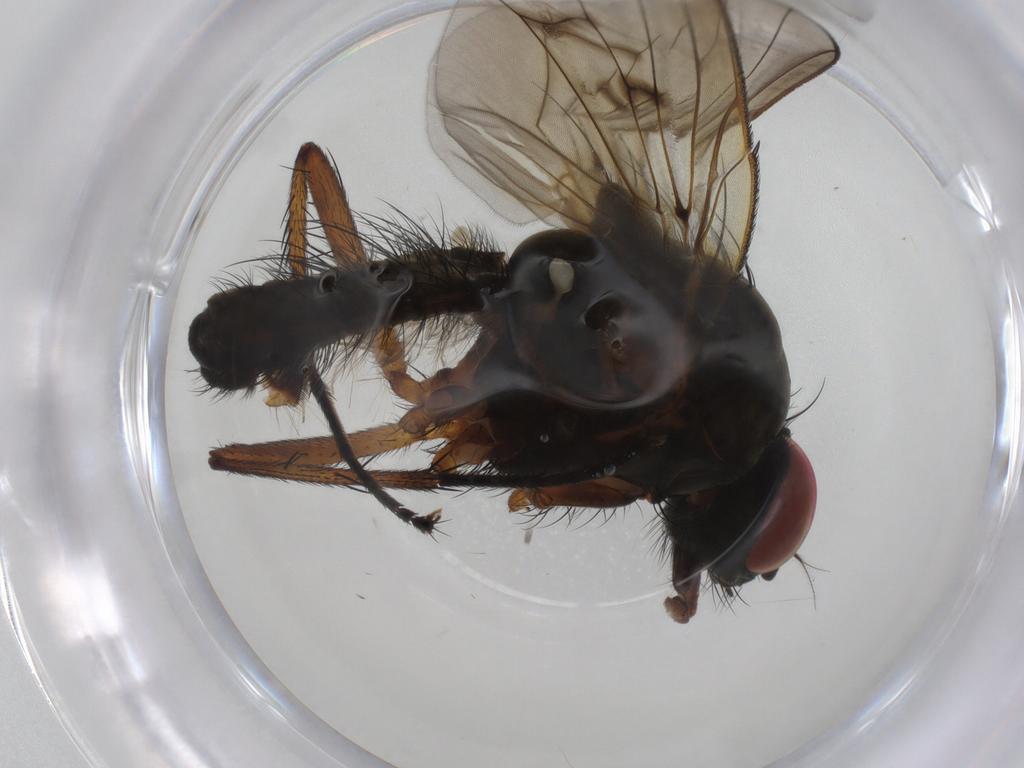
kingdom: Animalia
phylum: Arthropoda
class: Insecta
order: Diptera
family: Anthomyiidae
